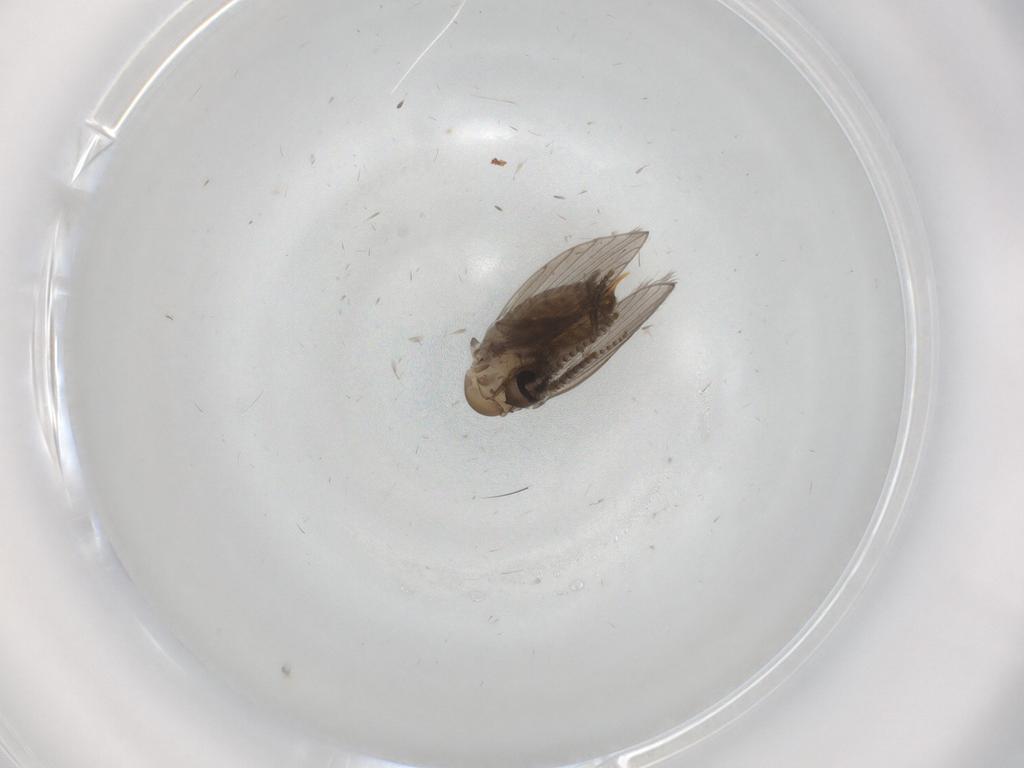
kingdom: Animalia
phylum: Arthropoda
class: Insecta
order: Diptera
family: Psychodidae
